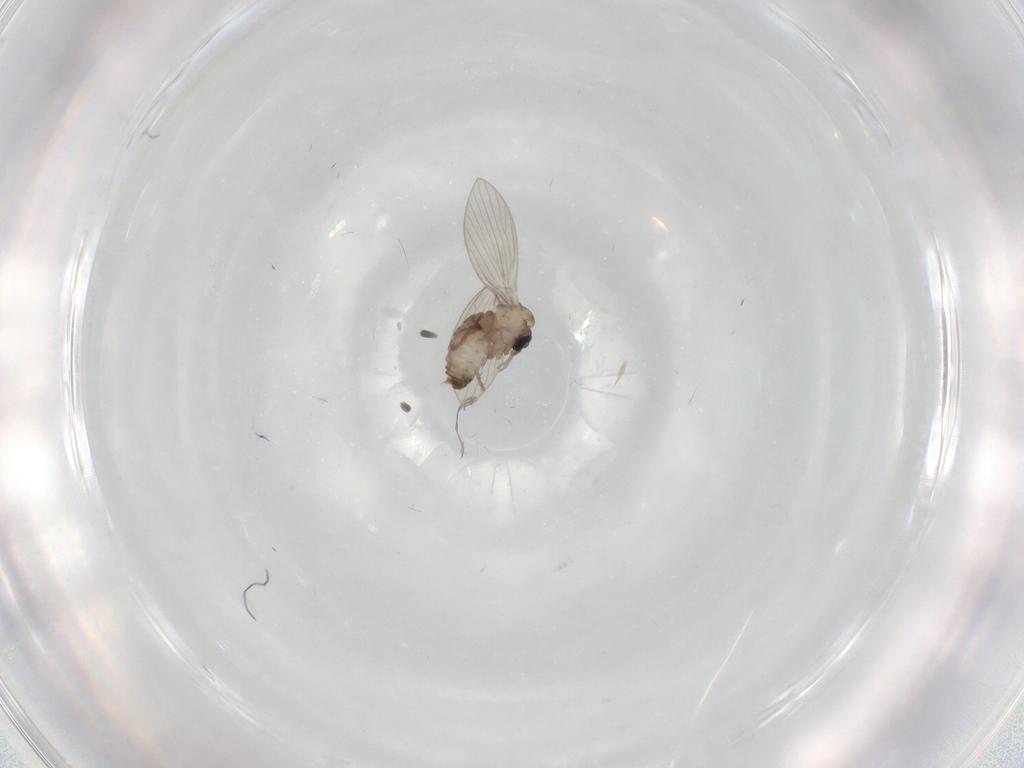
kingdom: Animalia
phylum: Arthropoda
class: Insecta
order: Diptera
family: Psychodidae
